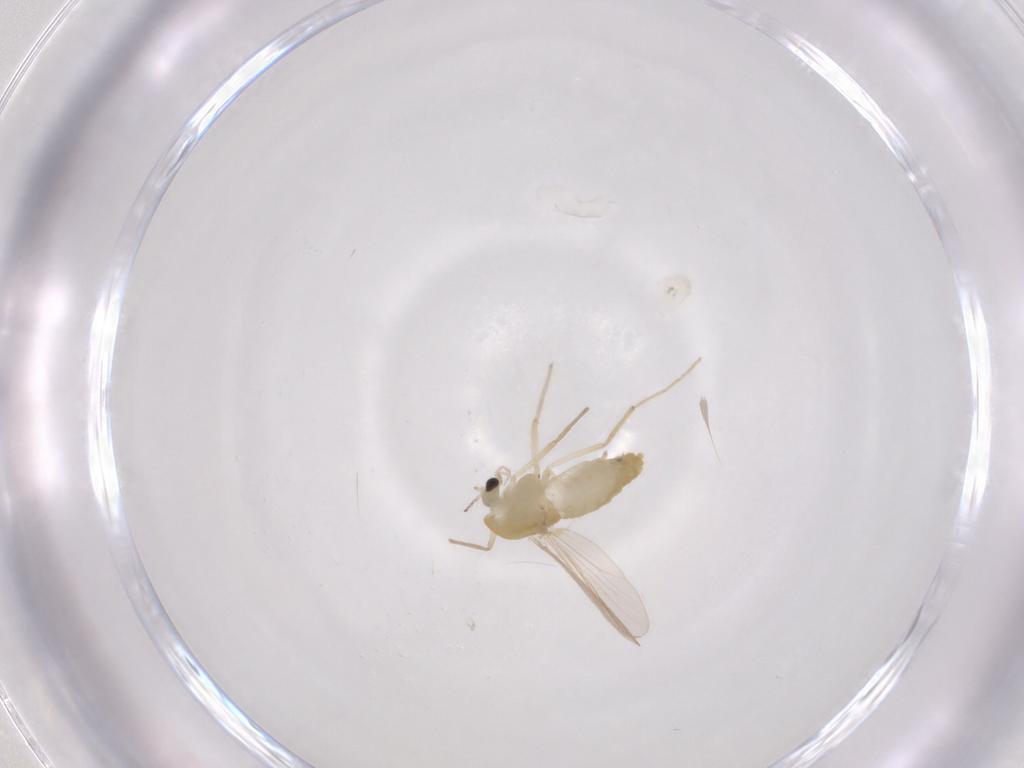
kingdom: Animalia
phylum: Arthropoda
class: Insecta
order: Diptera
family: Chironomidae
